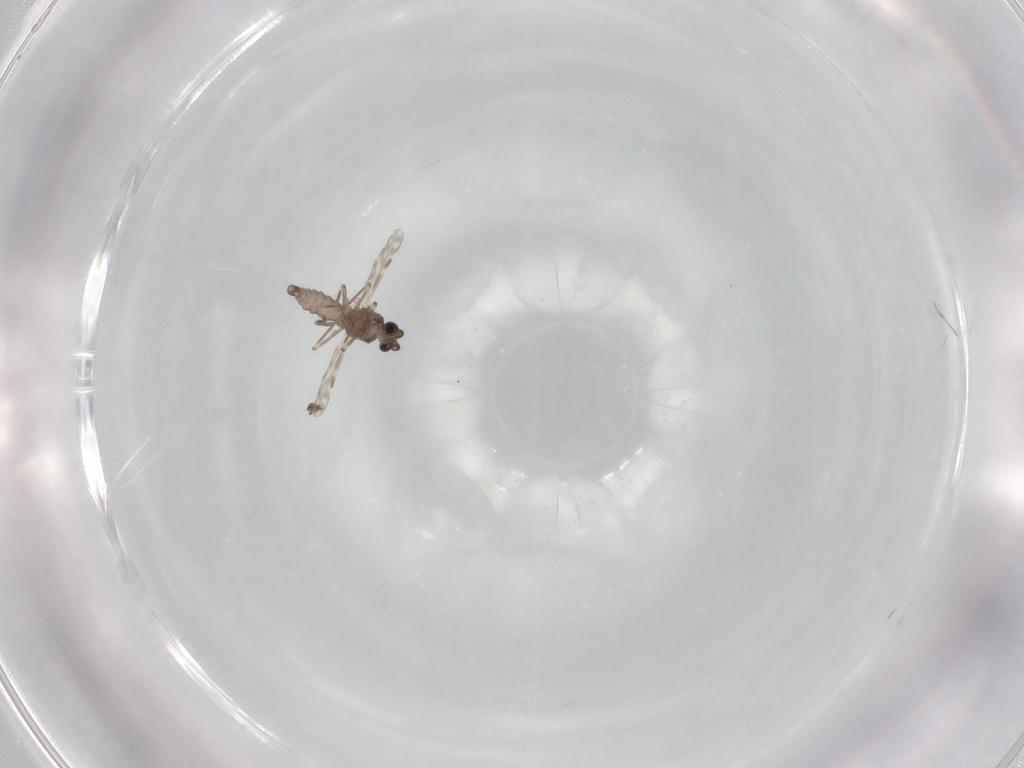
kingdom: Animalia
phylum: Arthropoda
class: Insecta
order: Diptera
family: Ceratopogonidae
